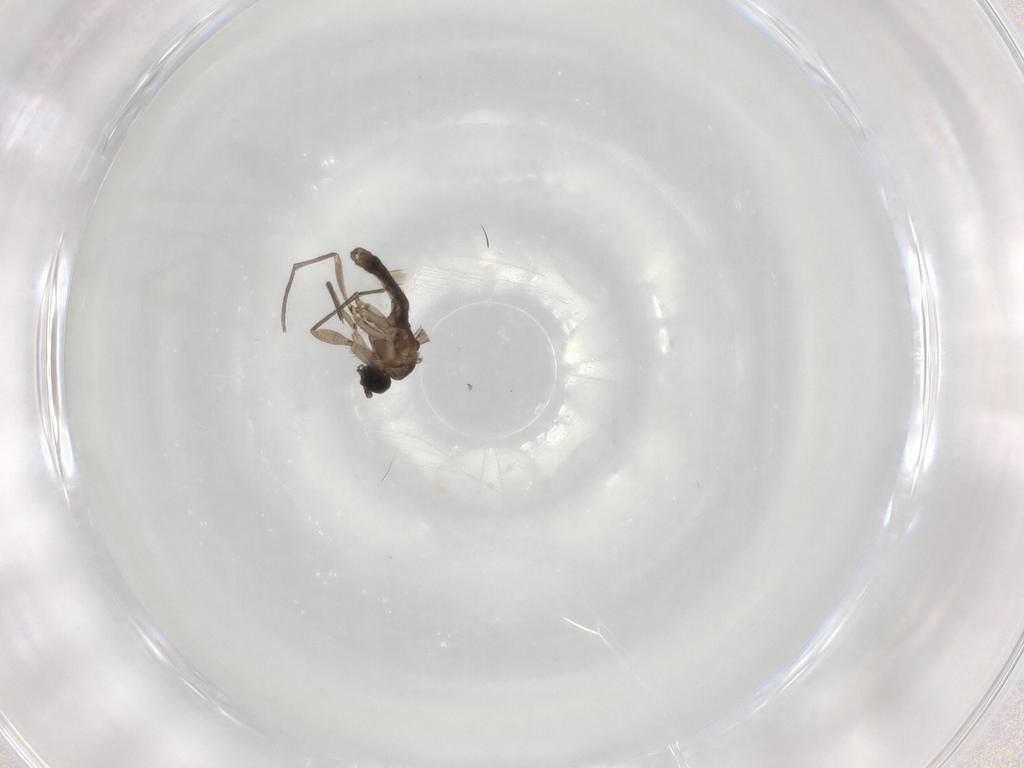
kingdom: Animalia
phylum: Arthropoda
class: Insecta
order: Diptera
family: Sciaridae
